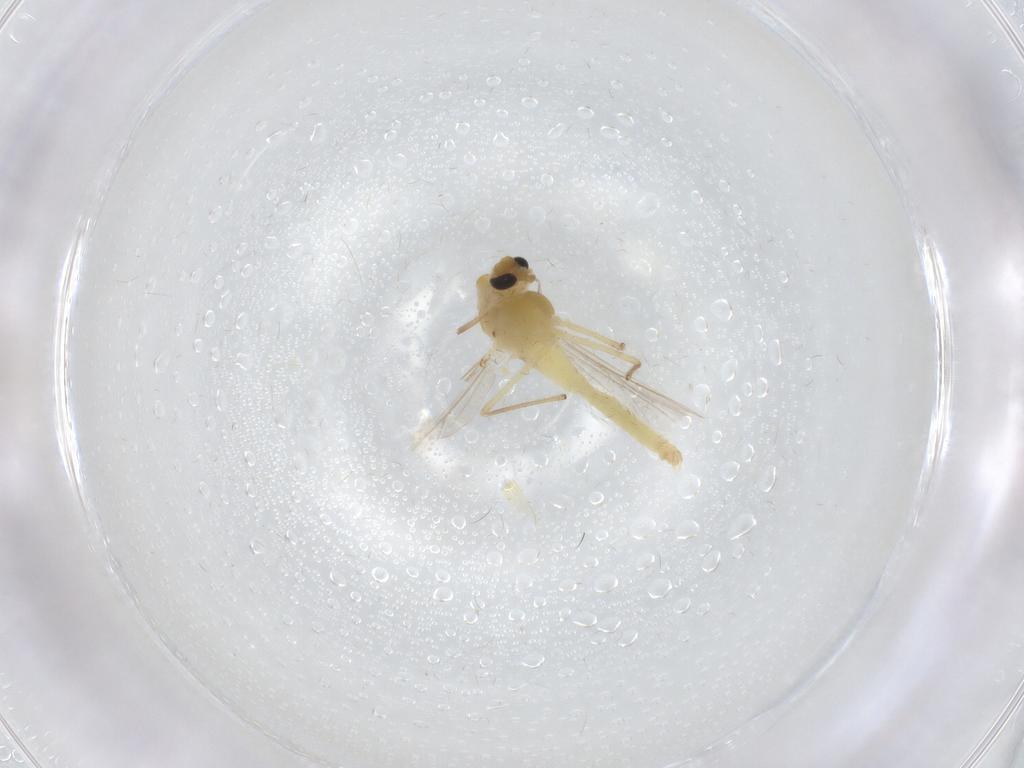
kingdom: Animalia
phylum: Arthropoda
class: Insecta
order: Diptera
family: Chironomidae
